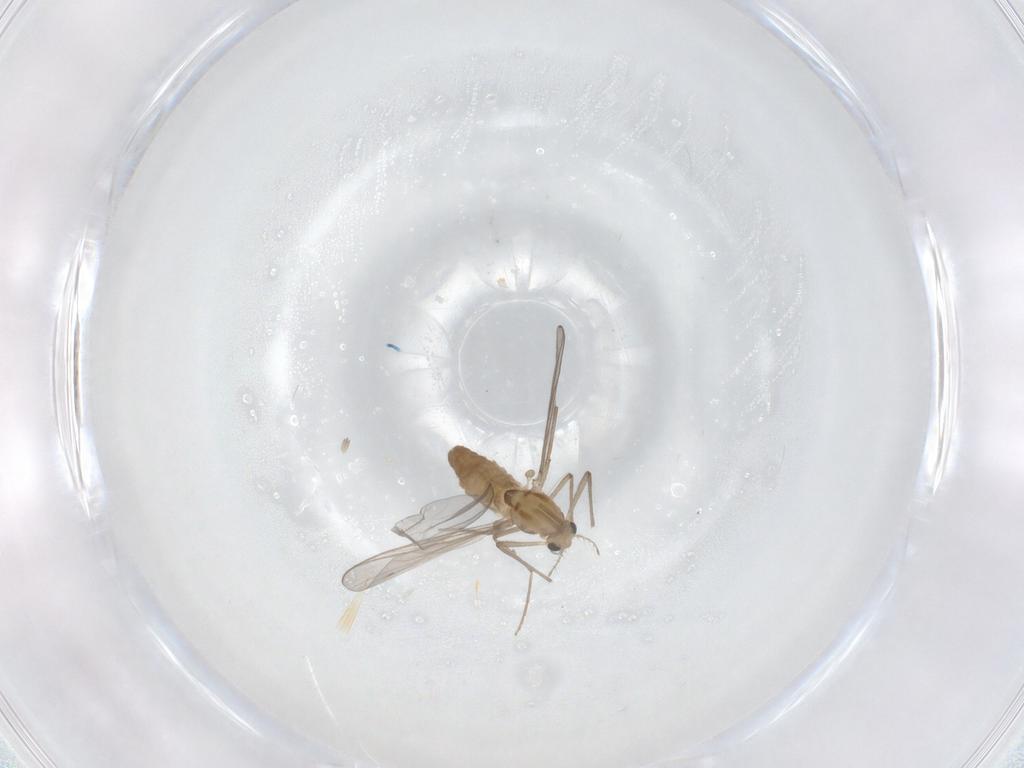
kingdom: Animalia
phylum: Arthropoda
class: Insecta
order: Diptera
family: Chironomidae
